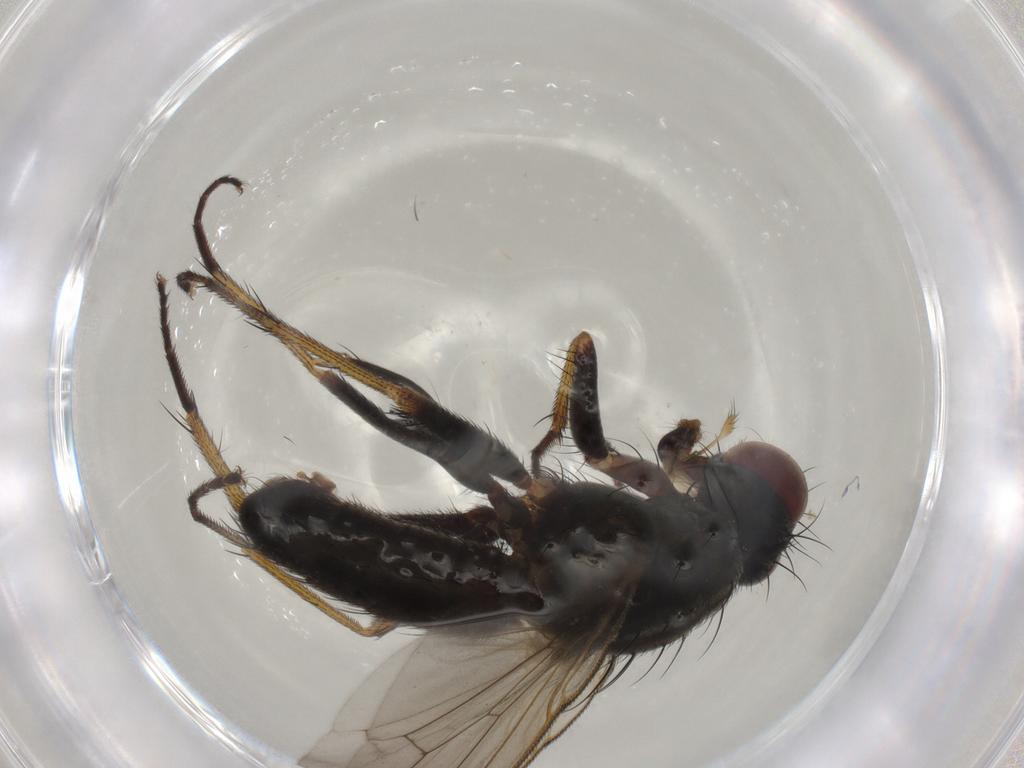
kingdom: Animalia
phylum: Arthropoda
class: Insecta
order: Diptera
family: Muscidae
